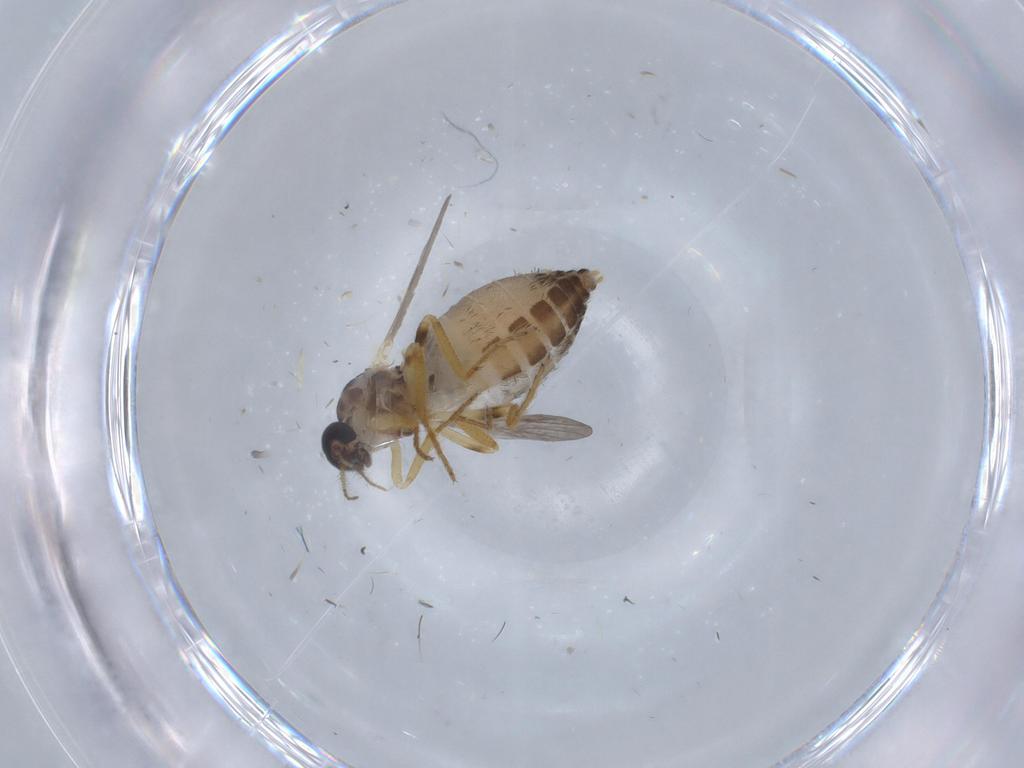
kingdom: Animalia
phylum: Arthropoda
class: Insecta
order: Diptera
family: Ceratopogonidae
